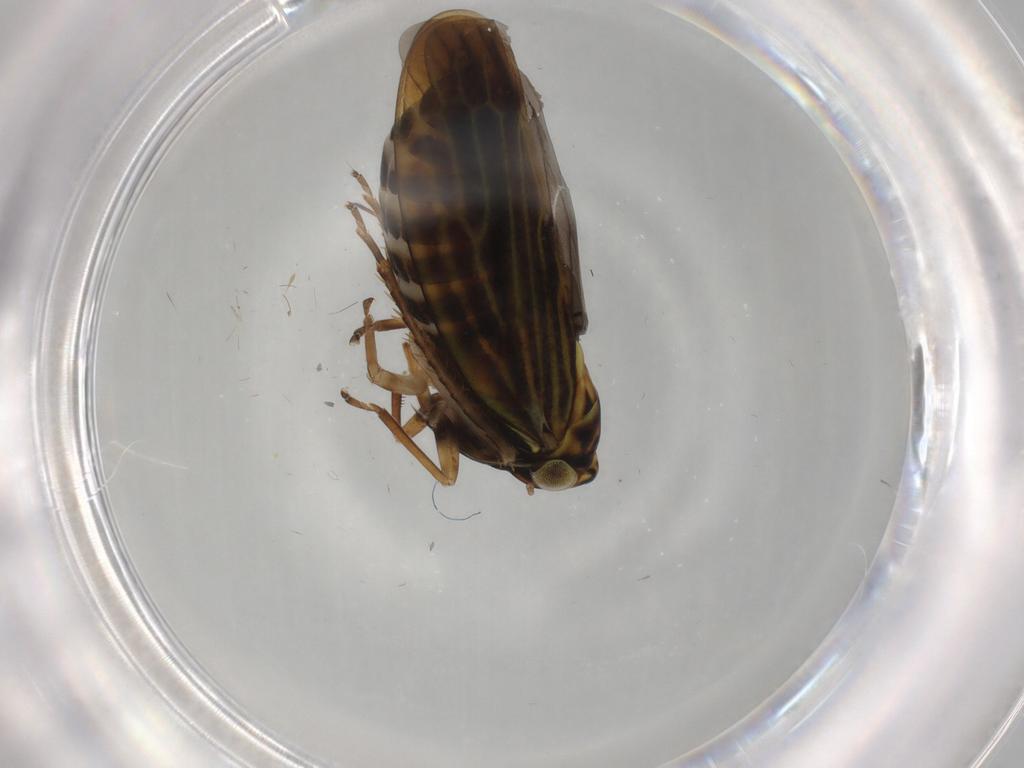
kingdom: Animalia
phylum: Arthropoda
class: Insecta
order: Hemiptera
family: Cicadellidae
